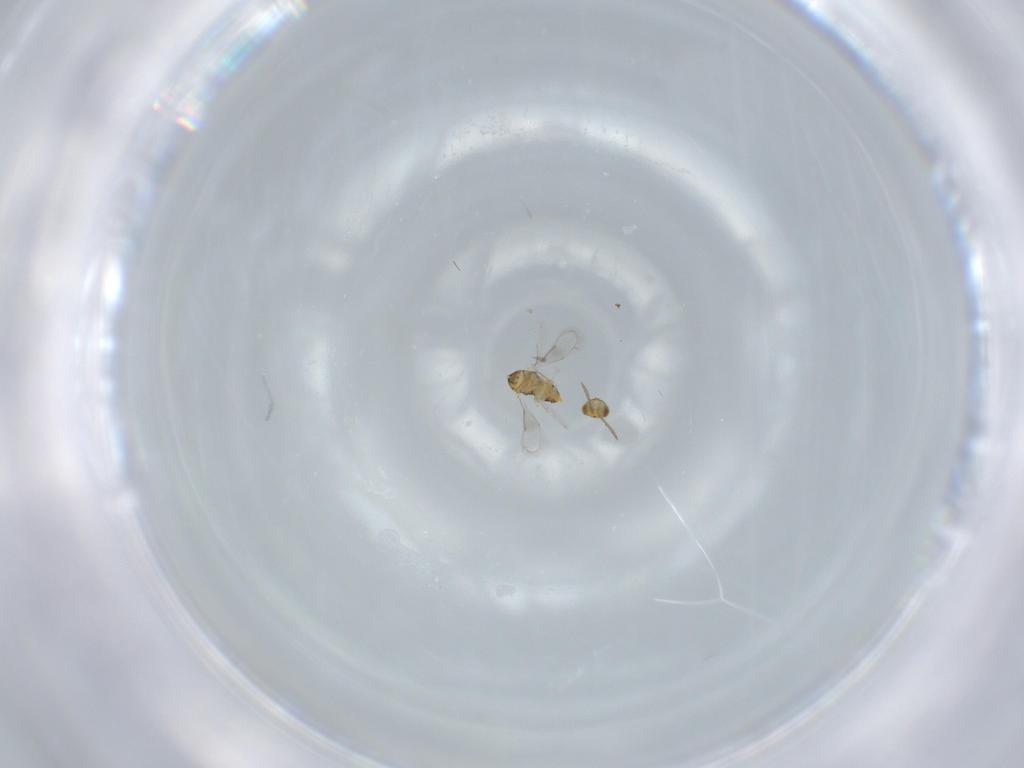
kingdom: Animalia
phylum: Arthropoda
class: Insecta
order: Hymenoptera
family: Aphelinidae
